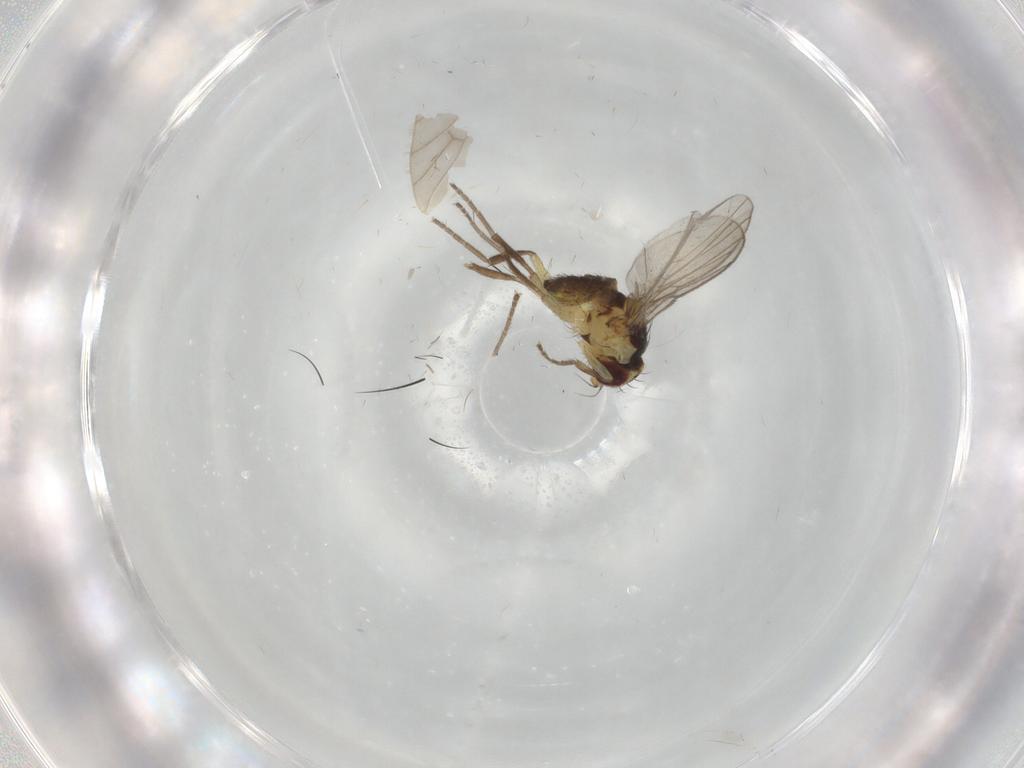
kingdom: Animalia
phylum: Arthropoda
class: Insecta
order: Diptera
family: Agromyzidae
